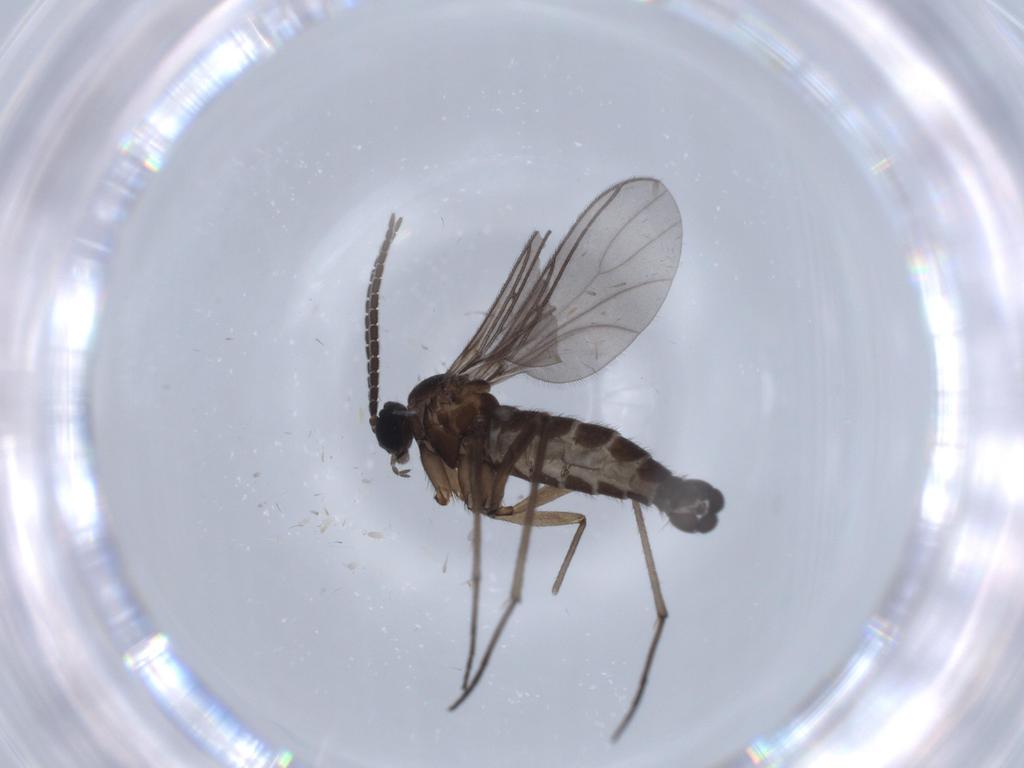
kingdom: Animalia
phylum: Arthropoda
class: Insecta
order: Diptera
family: Sciaridae
